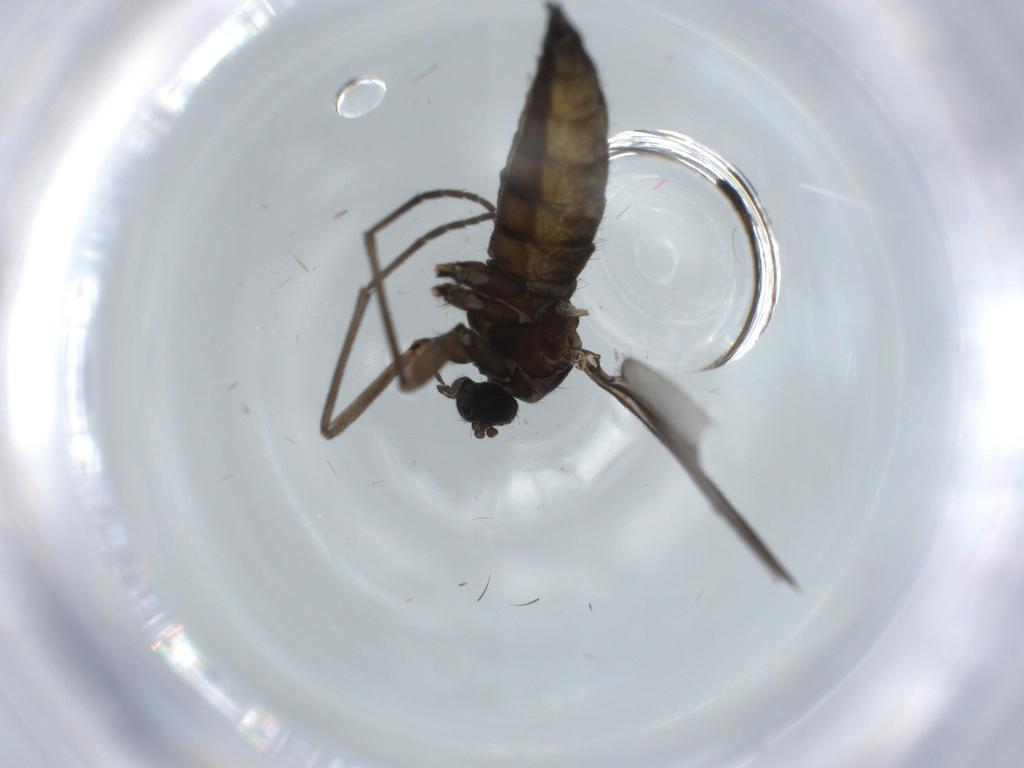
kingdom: Animalia
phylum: Arthropoda
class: Insecta
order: Diptera
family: Sciaridae
